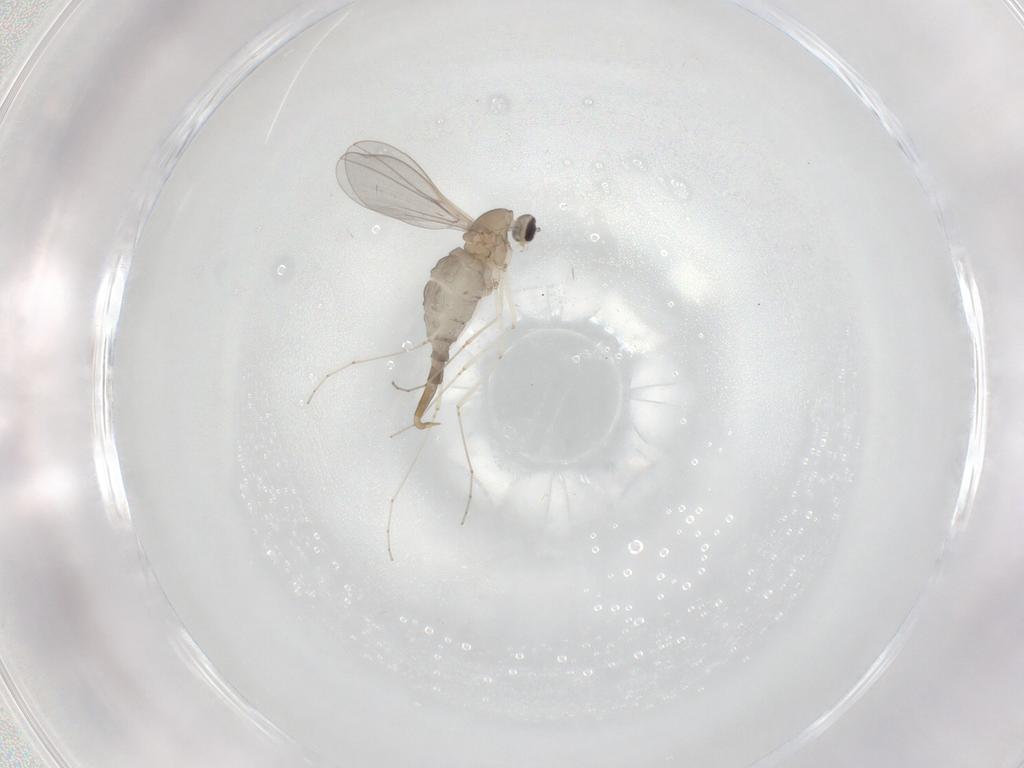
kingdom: Animalia
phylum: Arthropoda
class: Insecta
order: Diptera
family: Cecidomyiidae
